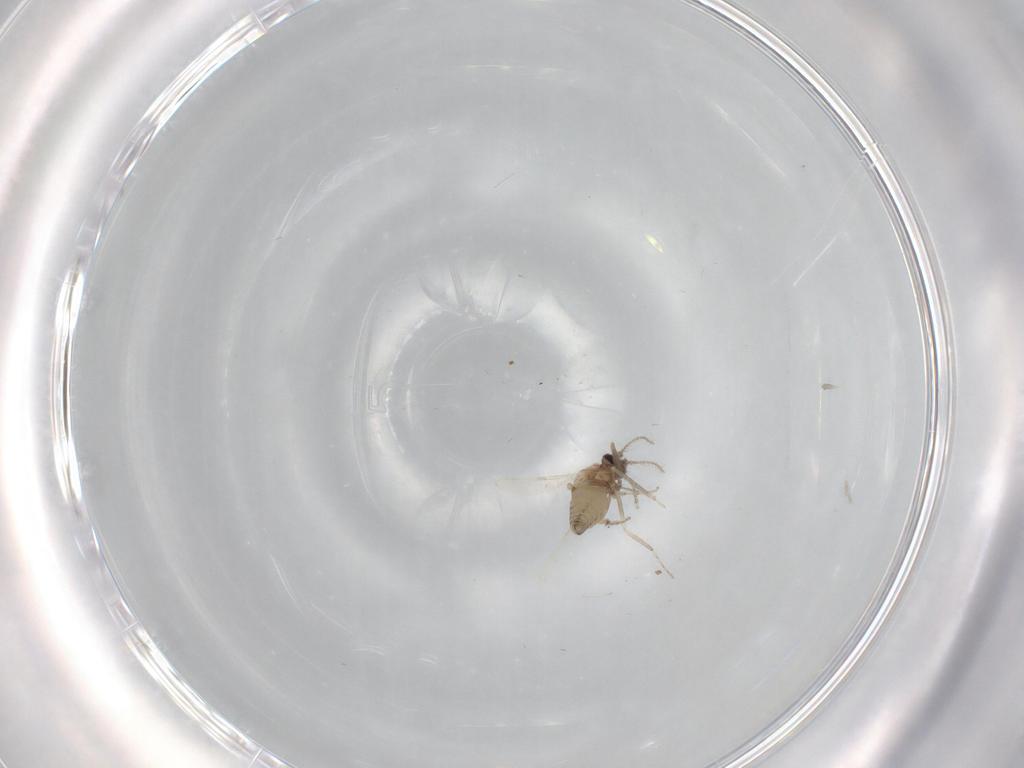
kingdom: Animalia
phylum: Arthropoda
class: Insecta
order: Diptera
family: Ceratopogonidae
